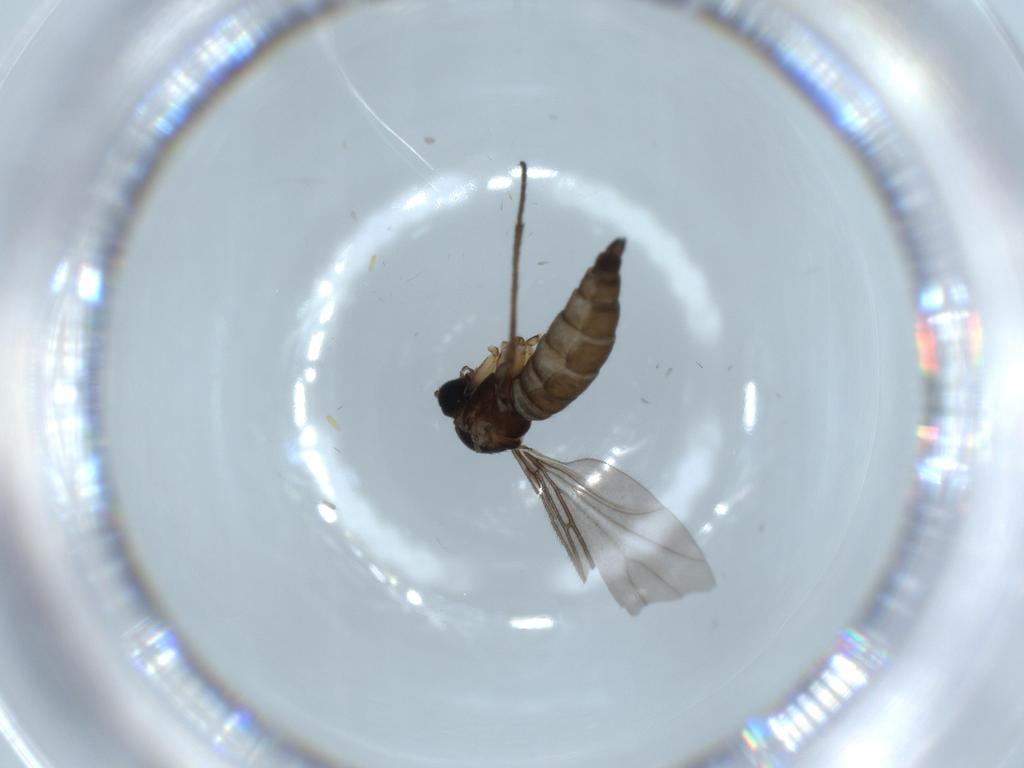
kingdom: Animalia
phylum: Arthropoda
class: Insecta
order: Diptera
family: Sciaridae
